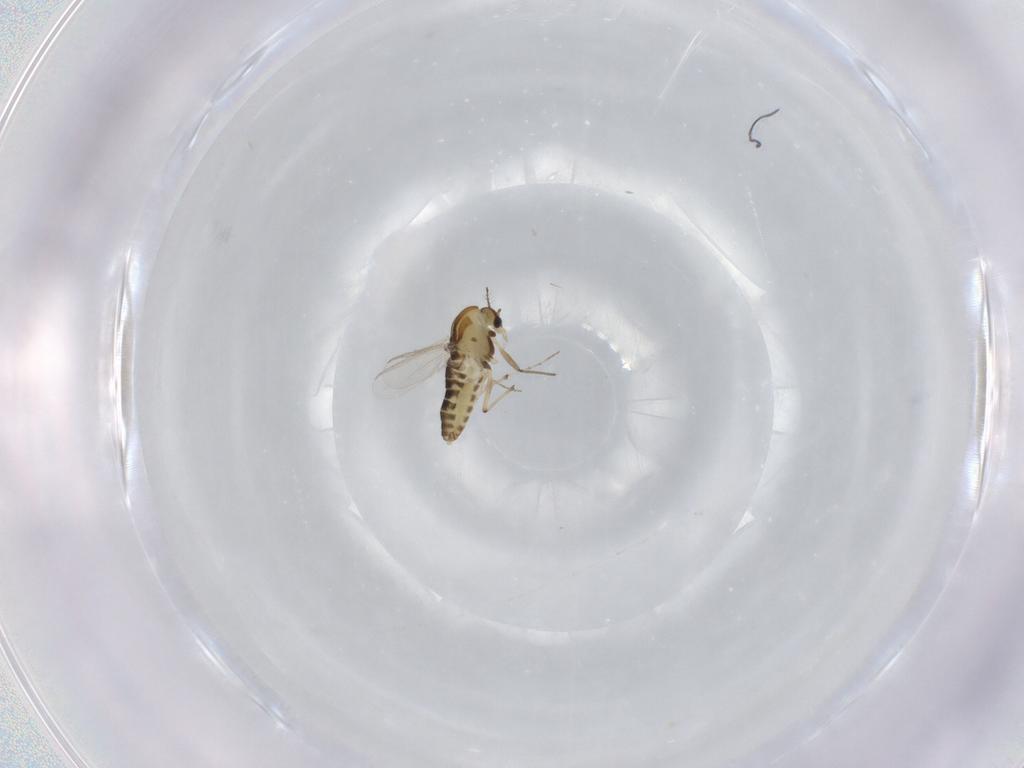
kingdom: Animalia
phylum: Arthropoda
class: Insecta
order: Diptera
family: Chironomidae
